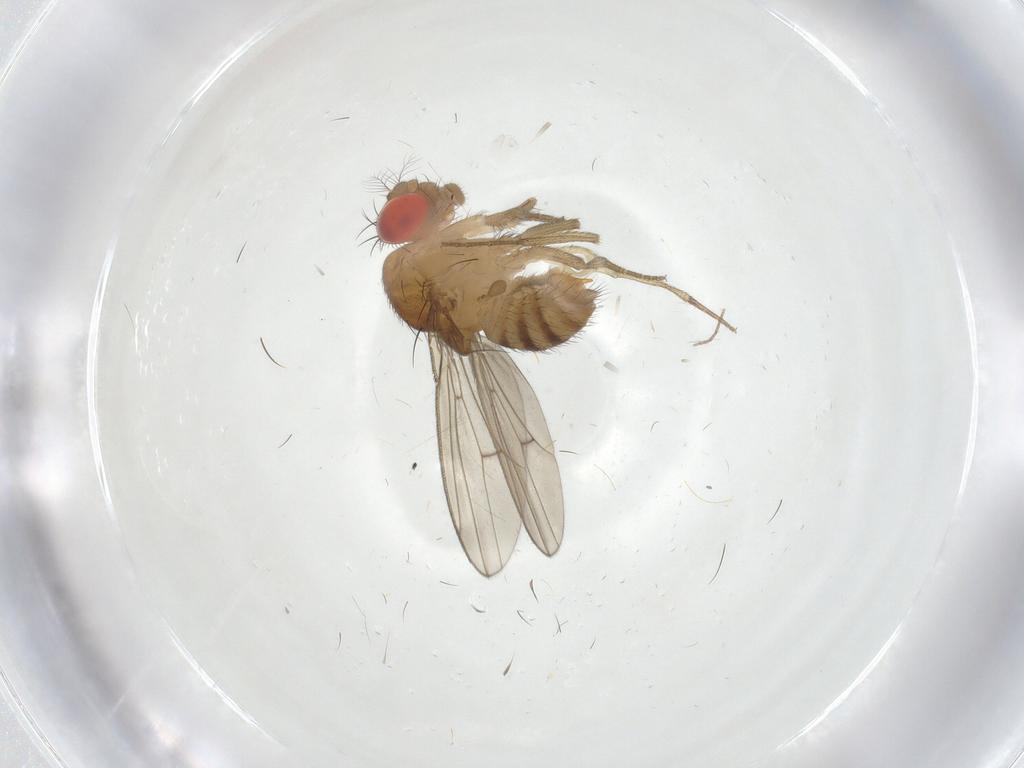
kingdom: Animalia
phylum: Arthropoda
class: Insecta
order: Diptera
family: Drosophilidae
